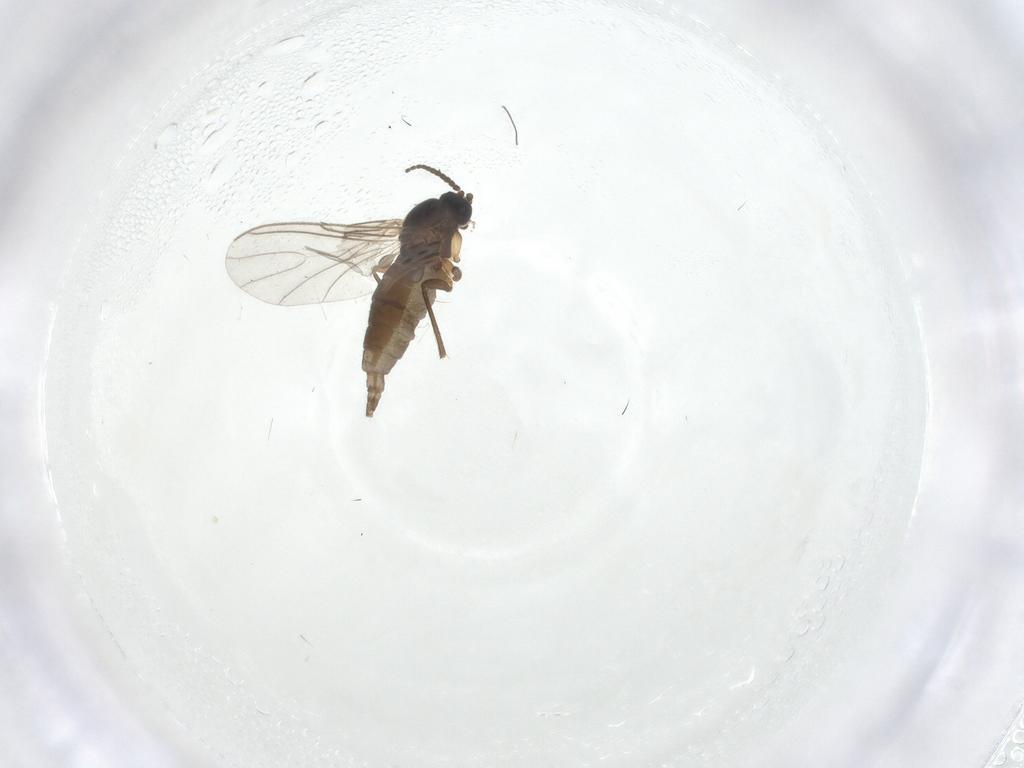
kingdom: Animalia
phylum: Arthropoda
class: Insecta
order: Diptera
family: Sciaridae
